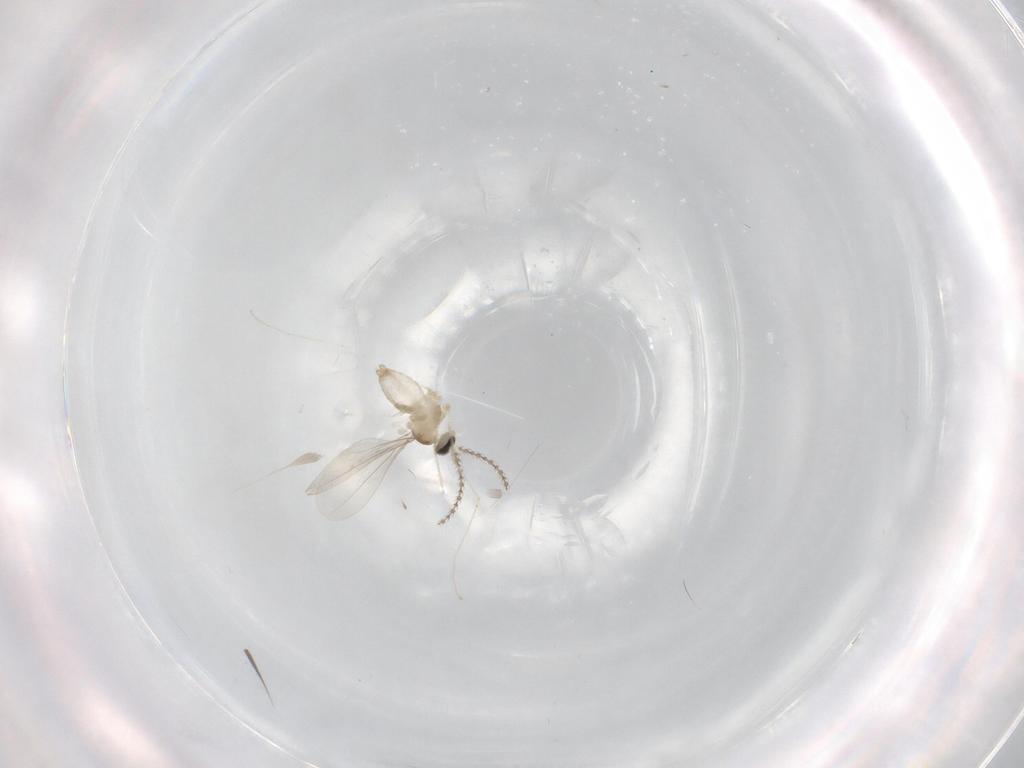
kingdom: Animalia
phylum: Arthropoda
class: Insecta
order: Diptera
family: Cecidomyiidae
